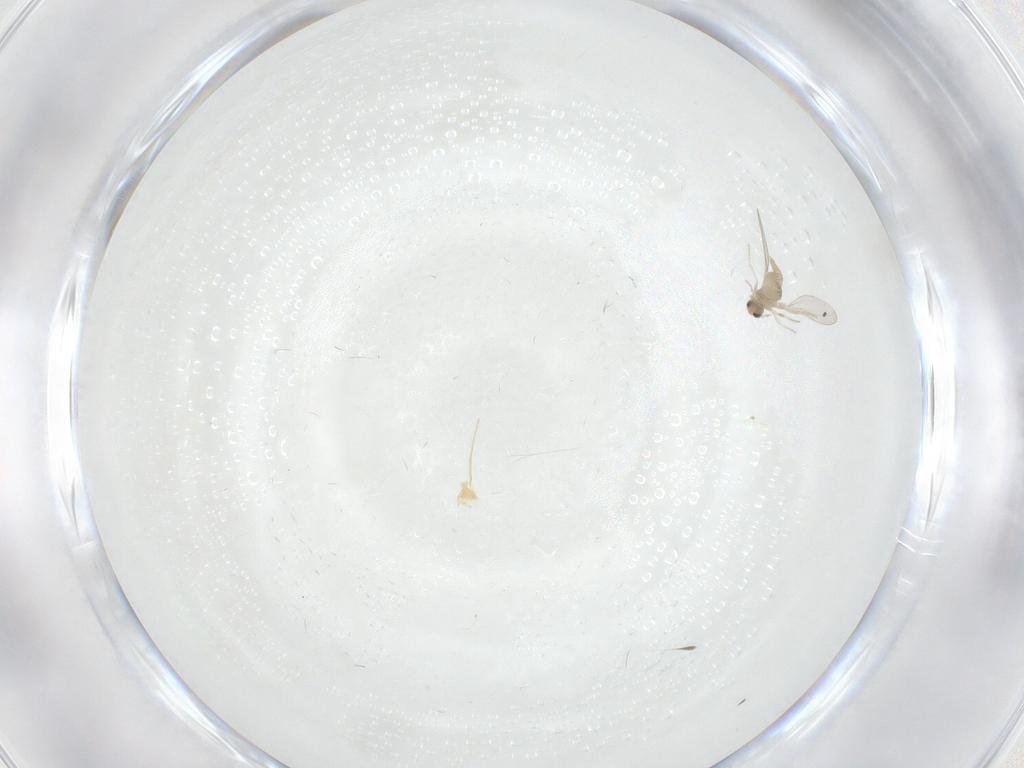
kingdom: Animalia
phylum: Arthropoda
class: Insecta
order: Diptera
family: Cecidomyiidae
